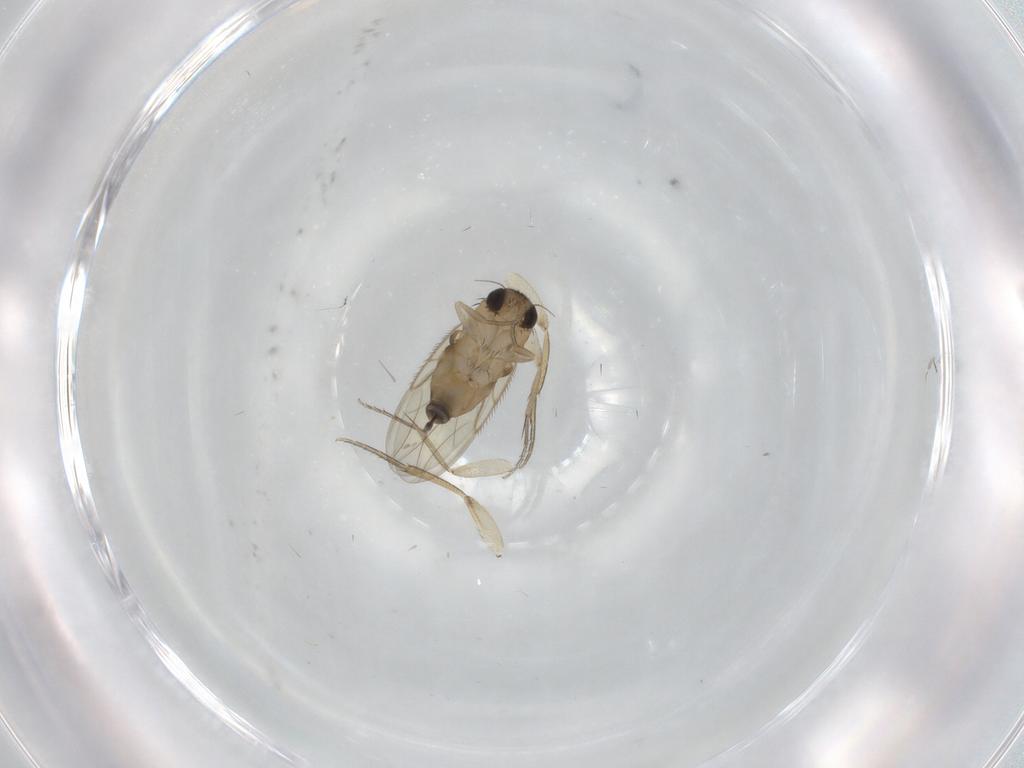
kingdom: Animalia
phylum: Arthropoda
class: Insecta
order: Diptera
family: Phoridae
